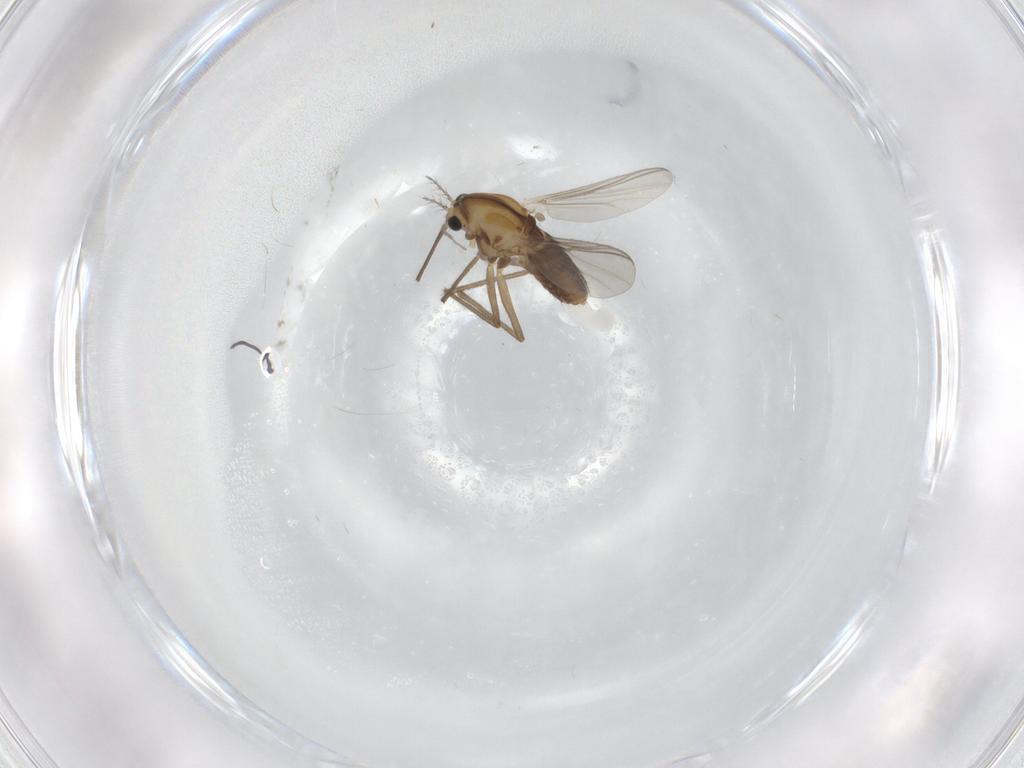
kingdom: Animalia
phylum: Arthropoda
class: Insecta
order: Diptera
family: Chironomidae
